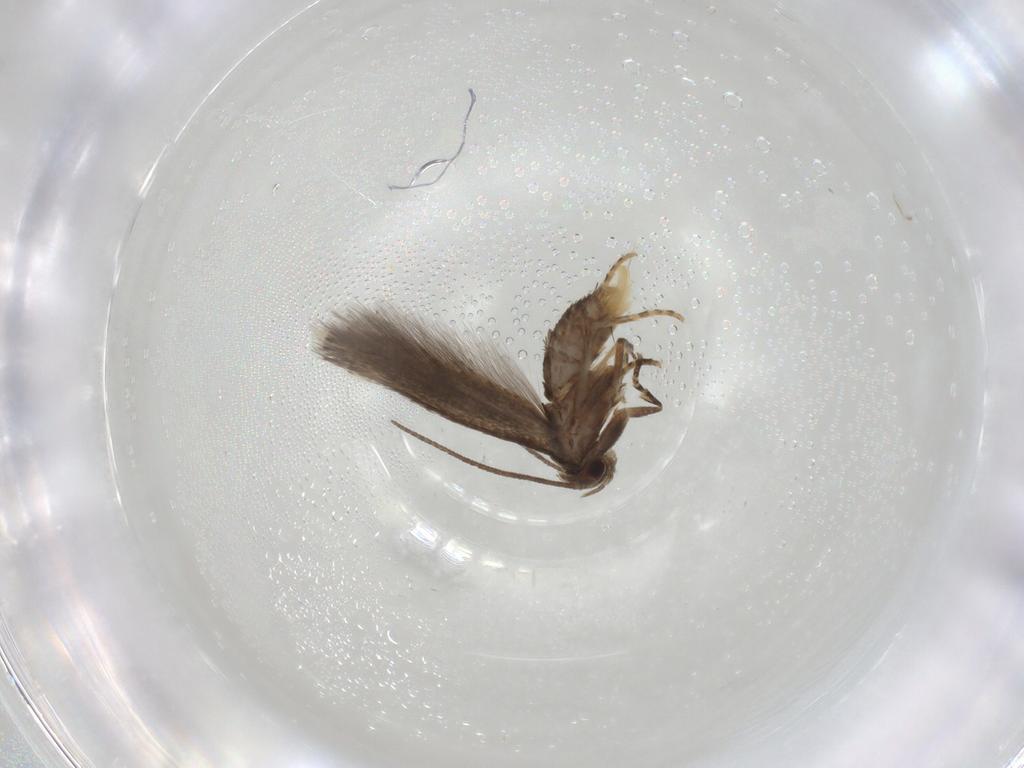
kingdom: Animalia
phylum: Arthropoda
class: Insecta
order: Lepidoptera
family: Elachistidae
